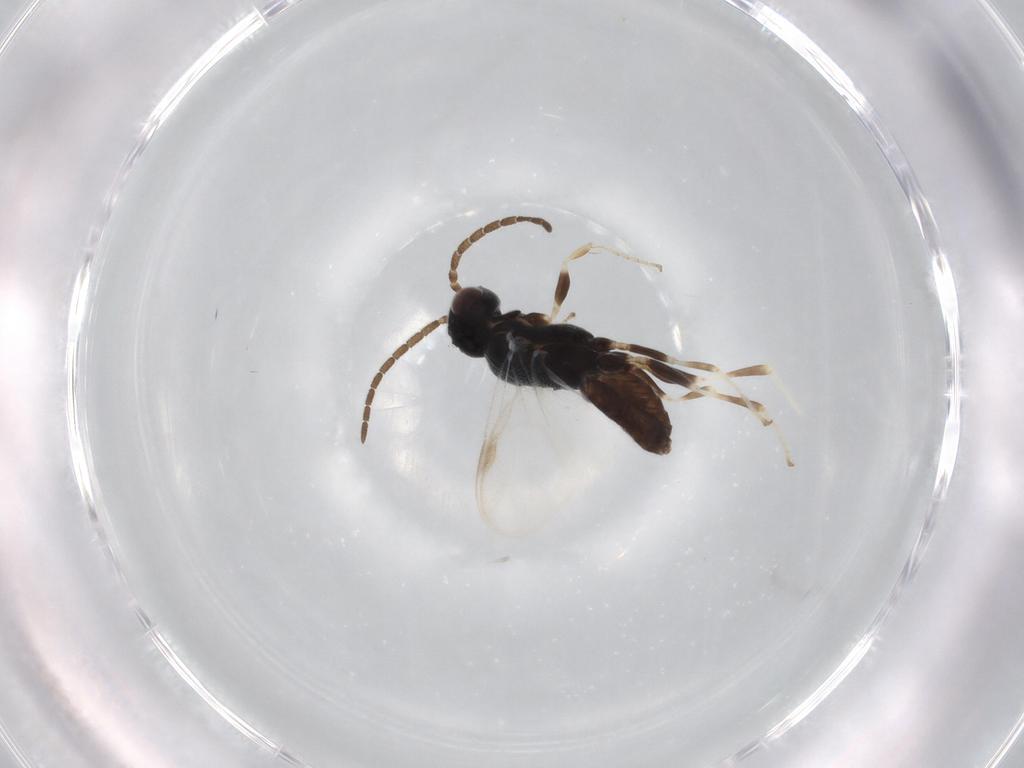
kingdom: Animalia
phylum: Arthropoda
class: Insecta
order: Hymenoptera
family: Dryinidae
